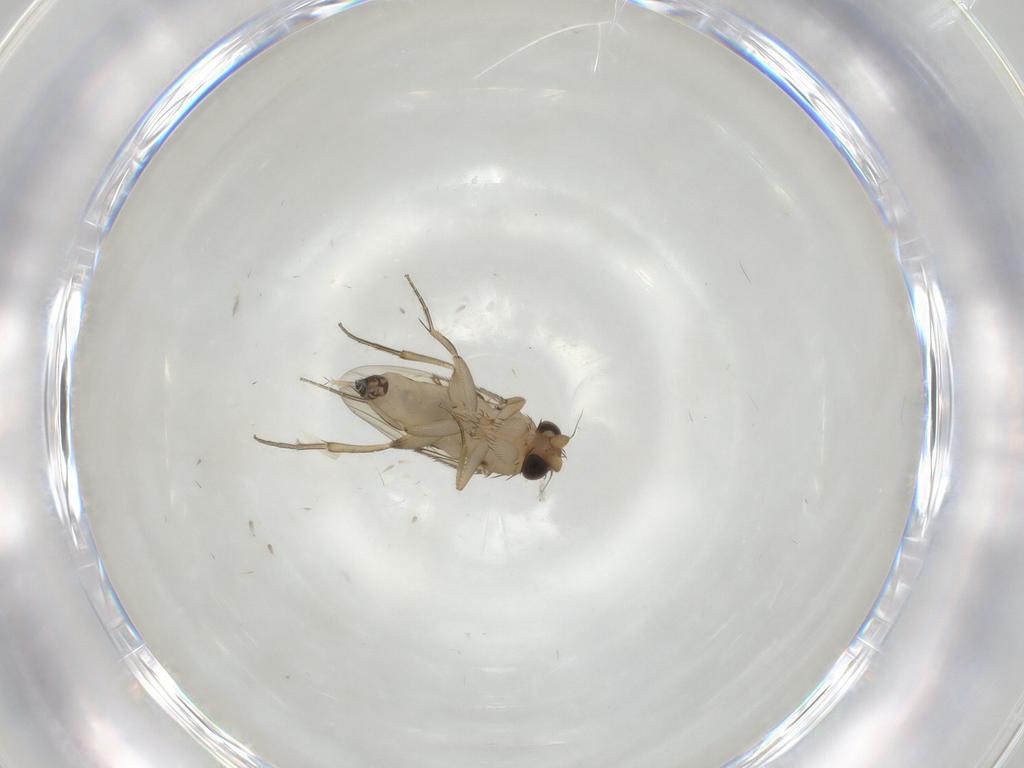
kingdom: Animalia
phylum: Arthropoda
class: Insecta
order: Diptera
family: Phoridae
